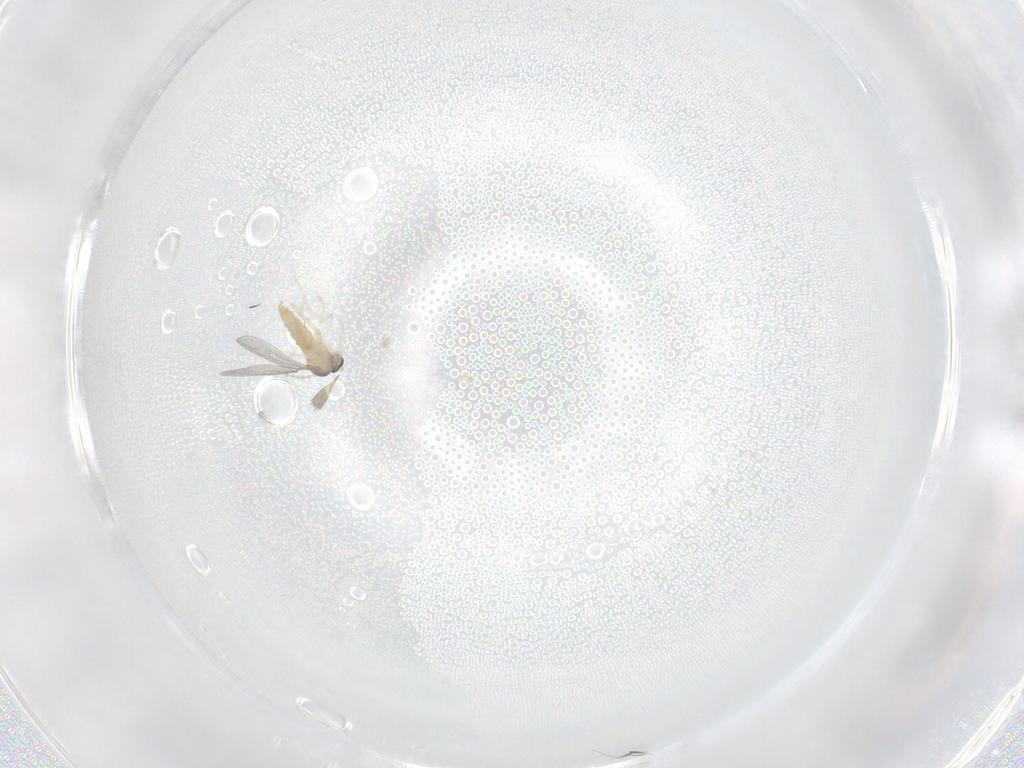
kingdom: Animalia
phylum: Arthropoda
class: Insecta
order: Diptera
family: Cecidomyiidae
